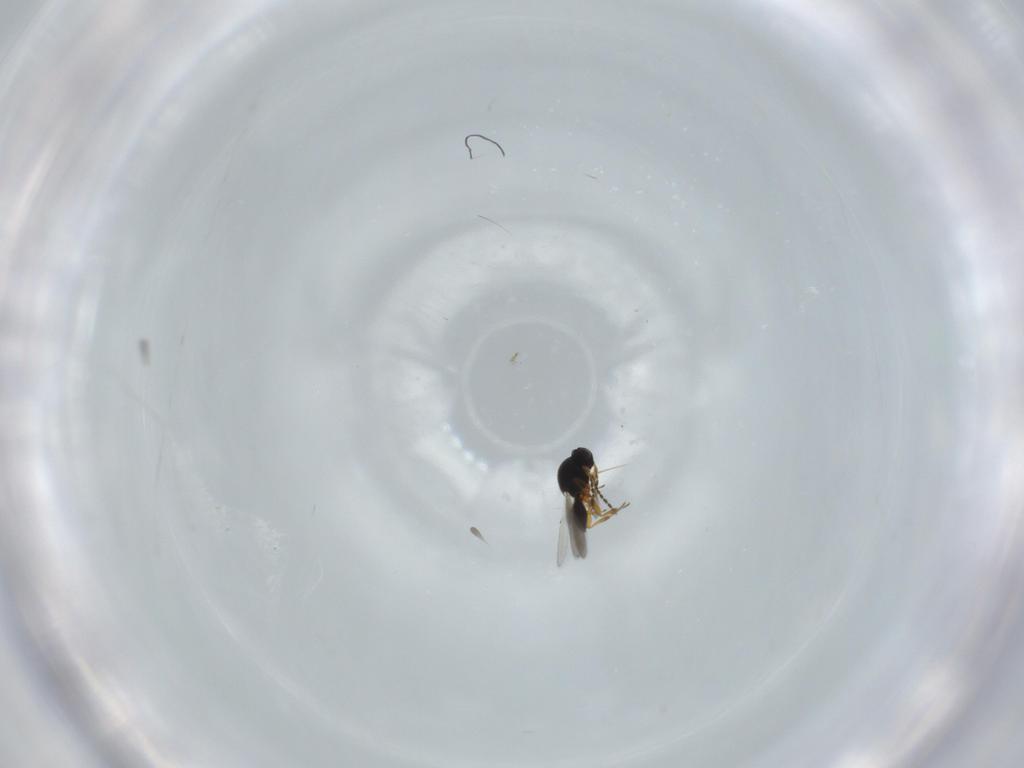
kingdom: Animalia
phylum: Arthropoda
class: Insecta
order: Hymenoptera
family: Platygastridae
